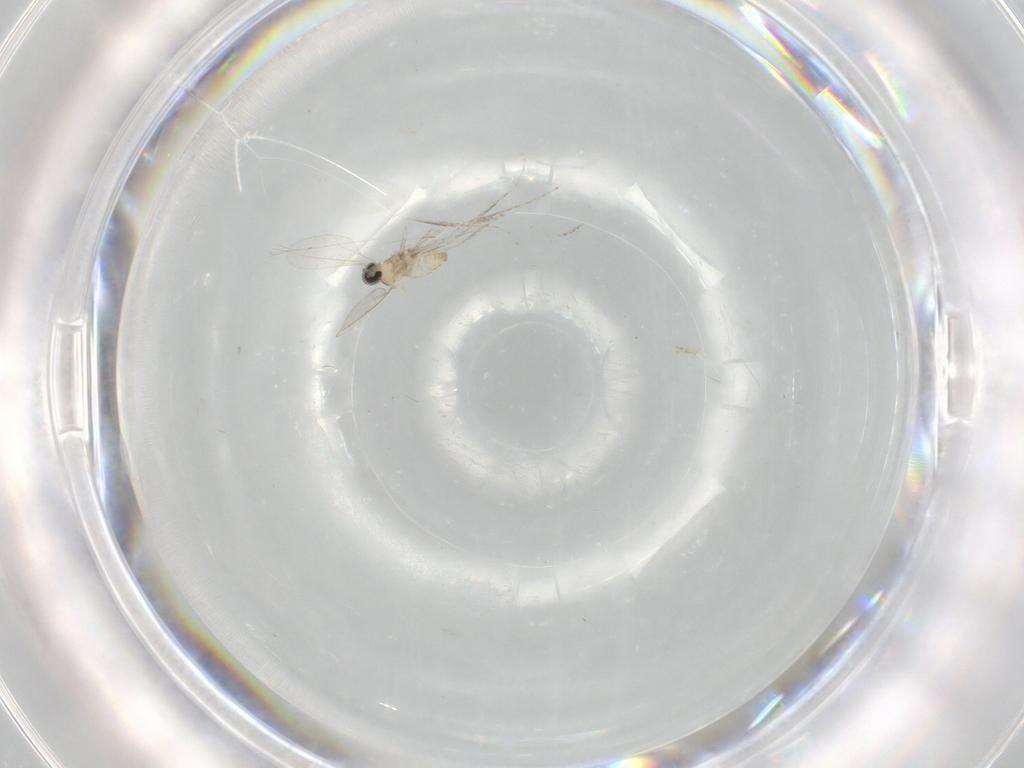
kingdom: Animalia
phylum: Arthropoda
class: Insecta
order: Diptera
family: Cecidomyiidae
